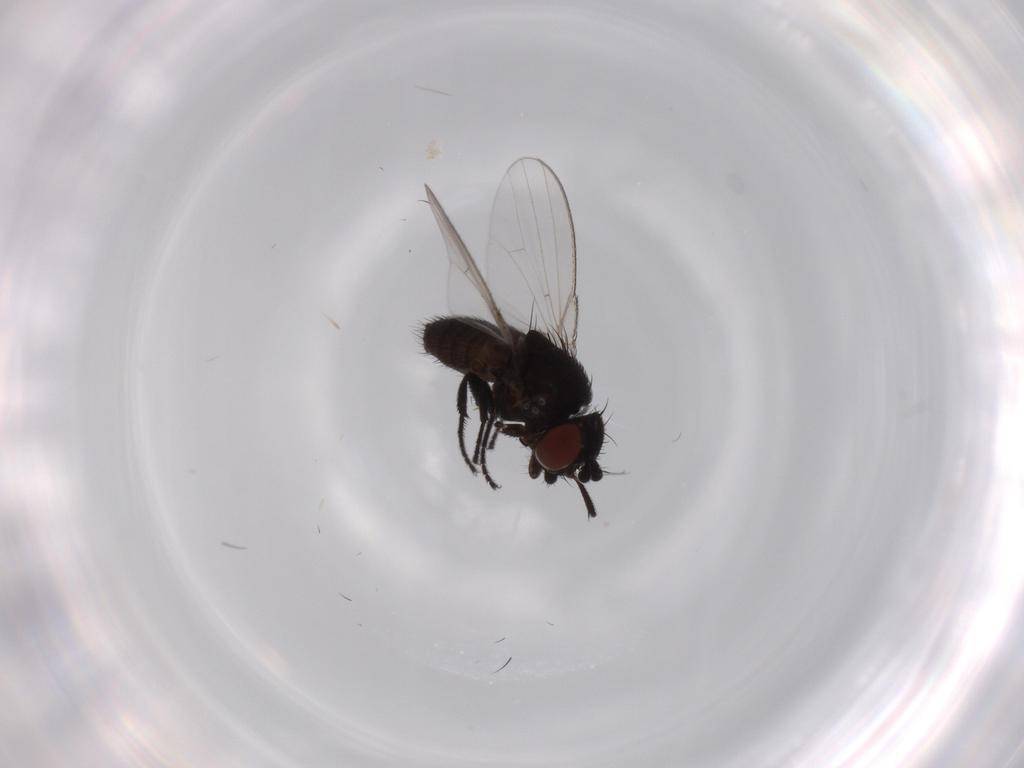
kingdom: Animalia
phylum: Arthropoda
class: Insecta
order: Diptera
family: Milichiidae
